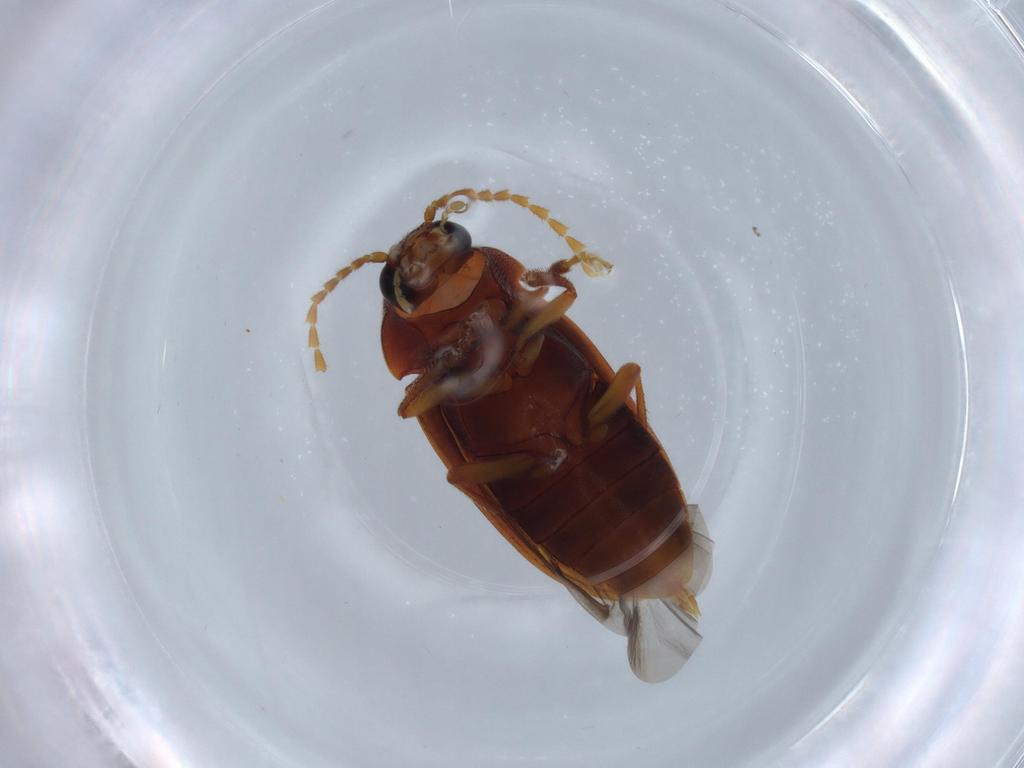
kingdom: Animalia
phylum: Arthropoda
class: Insecta
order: Coleoptera
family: Ptilodactylidae
